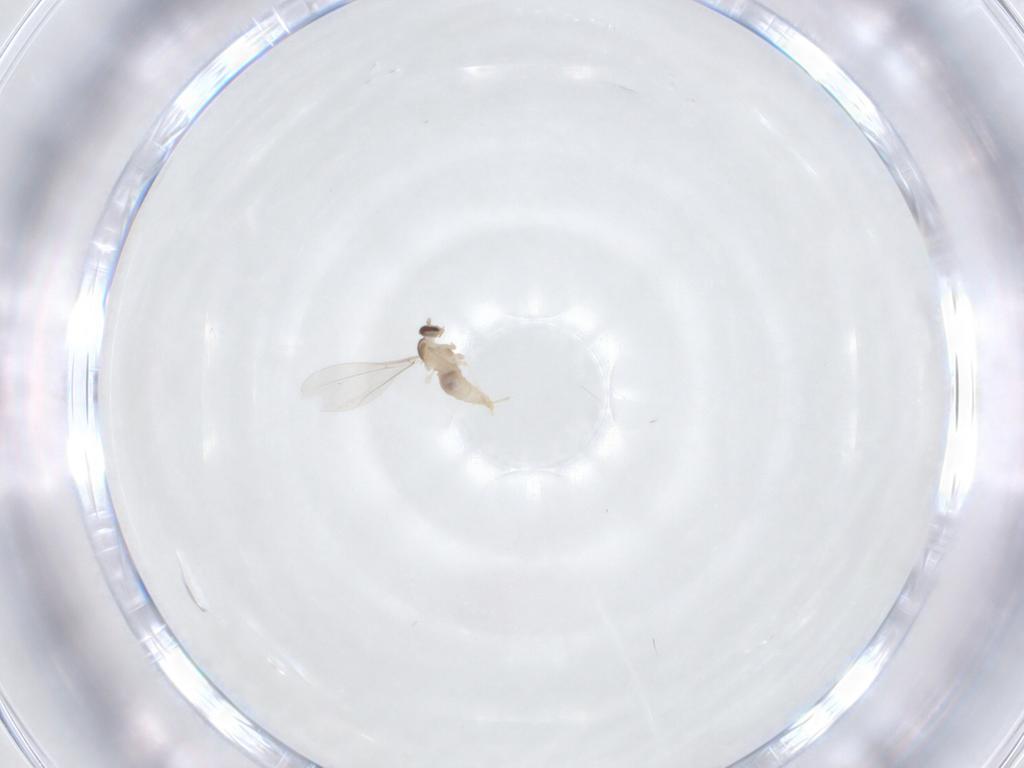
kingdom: Animalia
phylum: Arthropoda
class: Insecta
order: Diptera
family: Cecidomyiidae
